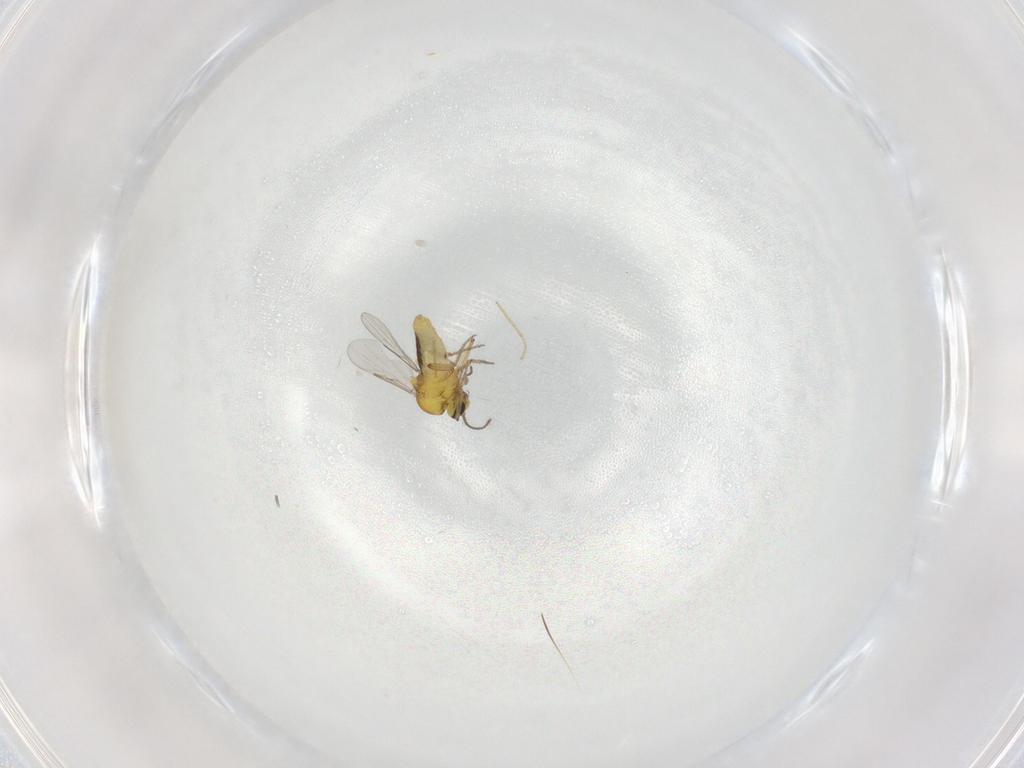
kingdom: Animalia
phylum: Arthropoda
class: Insecta
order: Diptera
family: Ceratopogonidae
